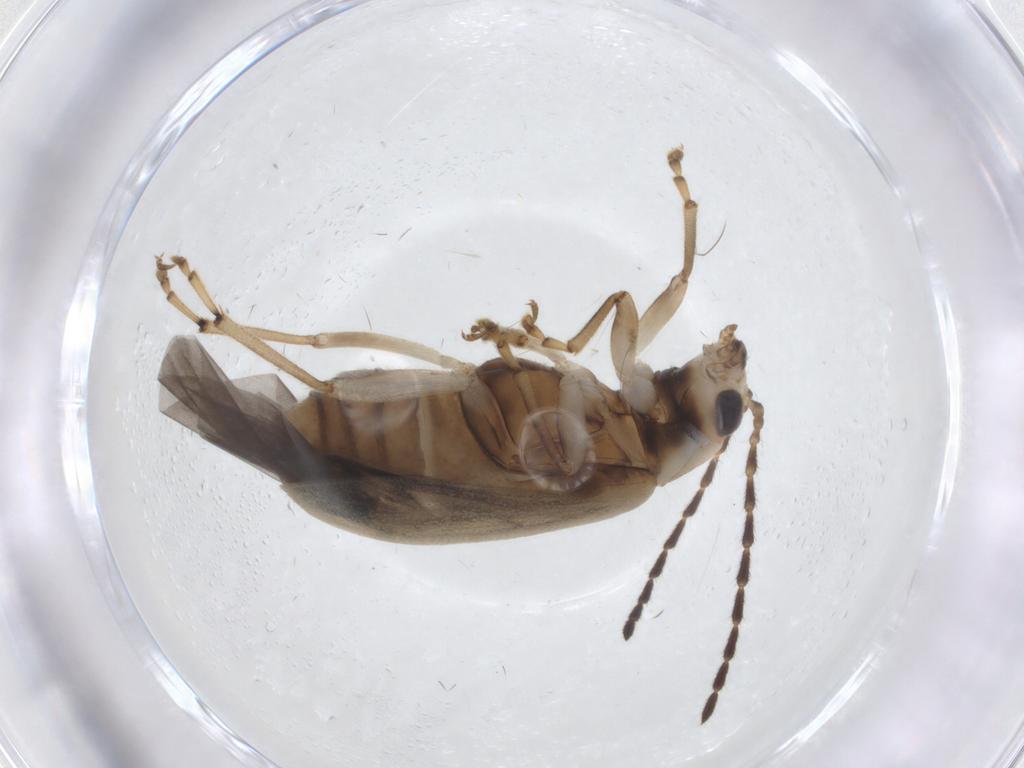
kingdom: Animalia
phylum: Arthropoda
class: Insecta
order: Coleoptera
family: Chrysomelidae
